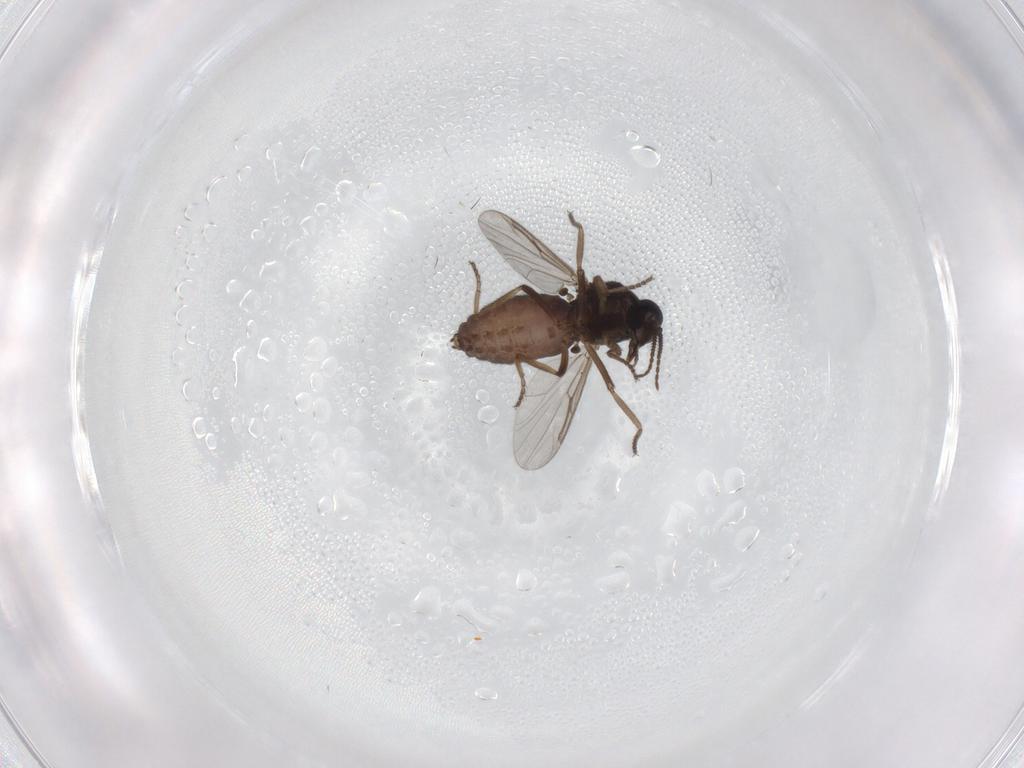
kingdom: Animalia
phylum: Arthropoda
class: Insecta
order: Diptera
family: Ceratopogonidae
